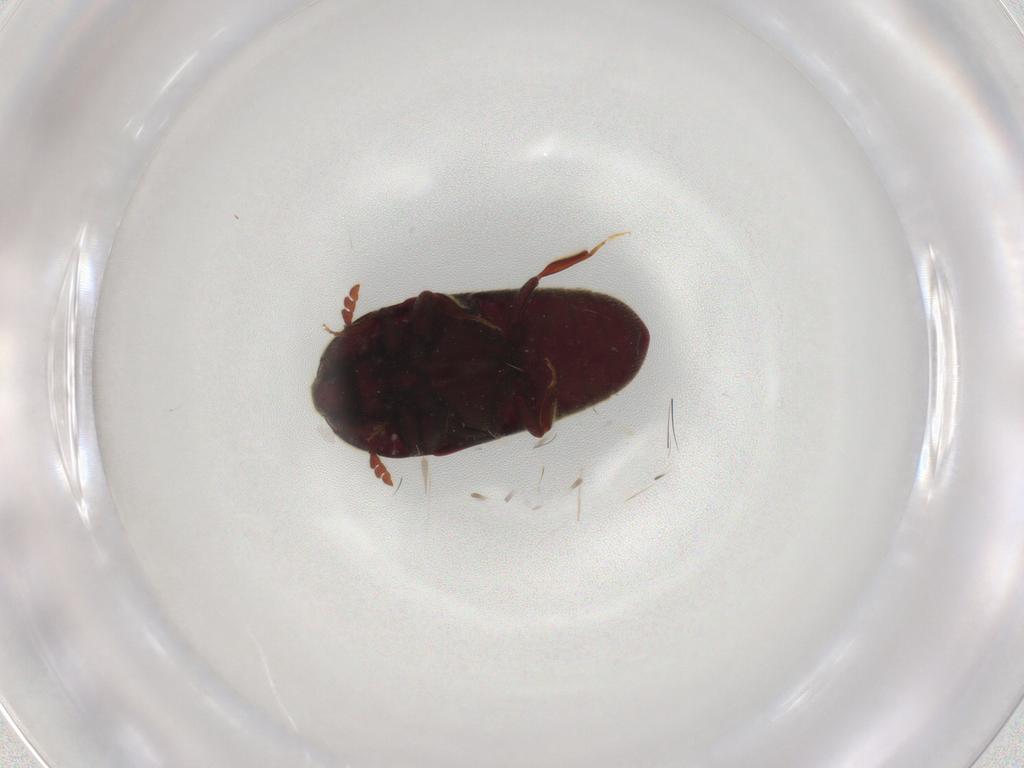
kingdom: Animalia
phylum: Arthropoda
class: Insecta
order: Coleoptera
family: Throscidae
